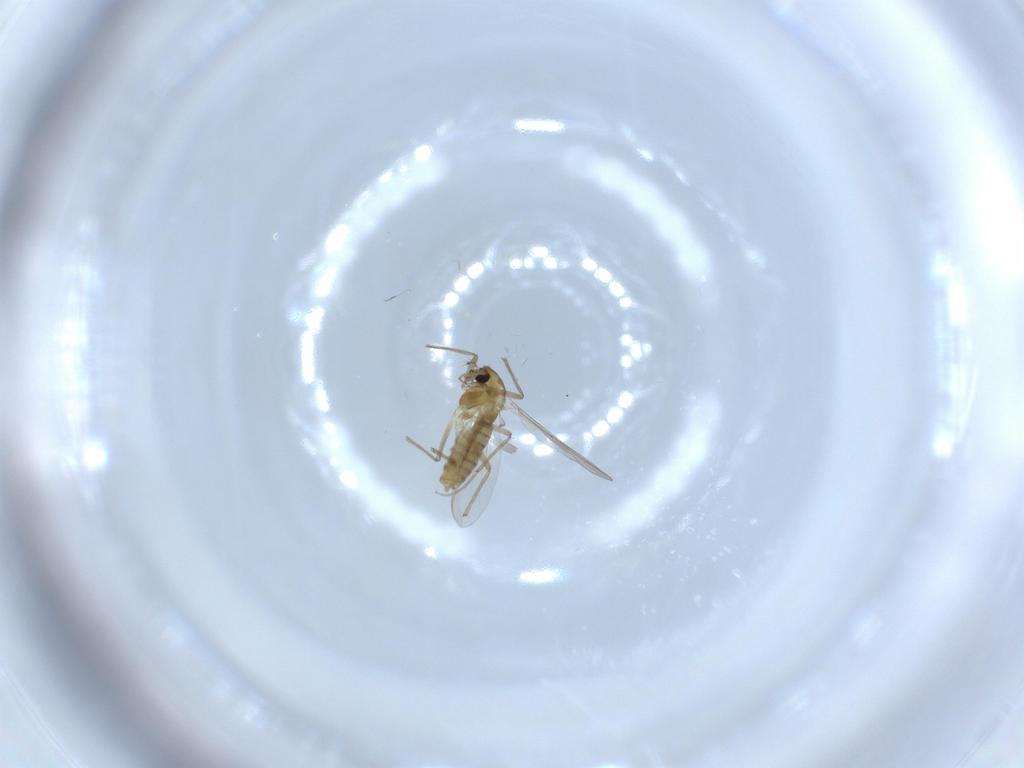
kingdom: Animalia
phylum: Arthropoda
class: Insecta
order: Diptera
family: Chironomidae
